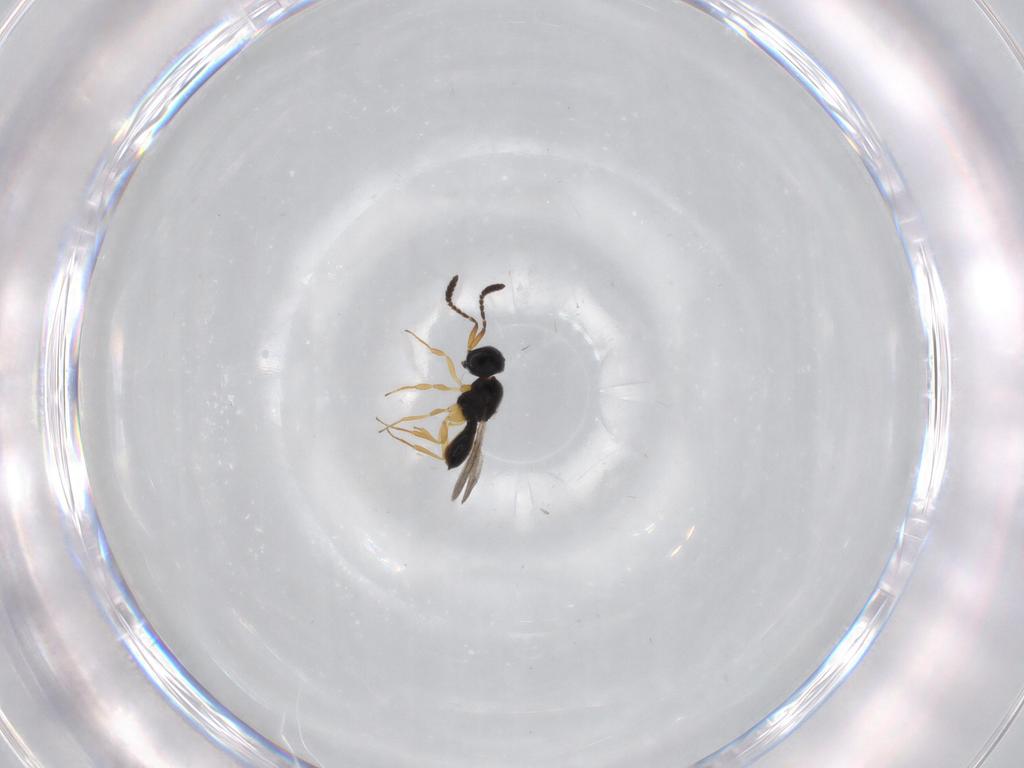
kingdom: Animalia
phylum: Arthropoda
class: Insecta
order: Hymenoptera
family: Scelionidae
